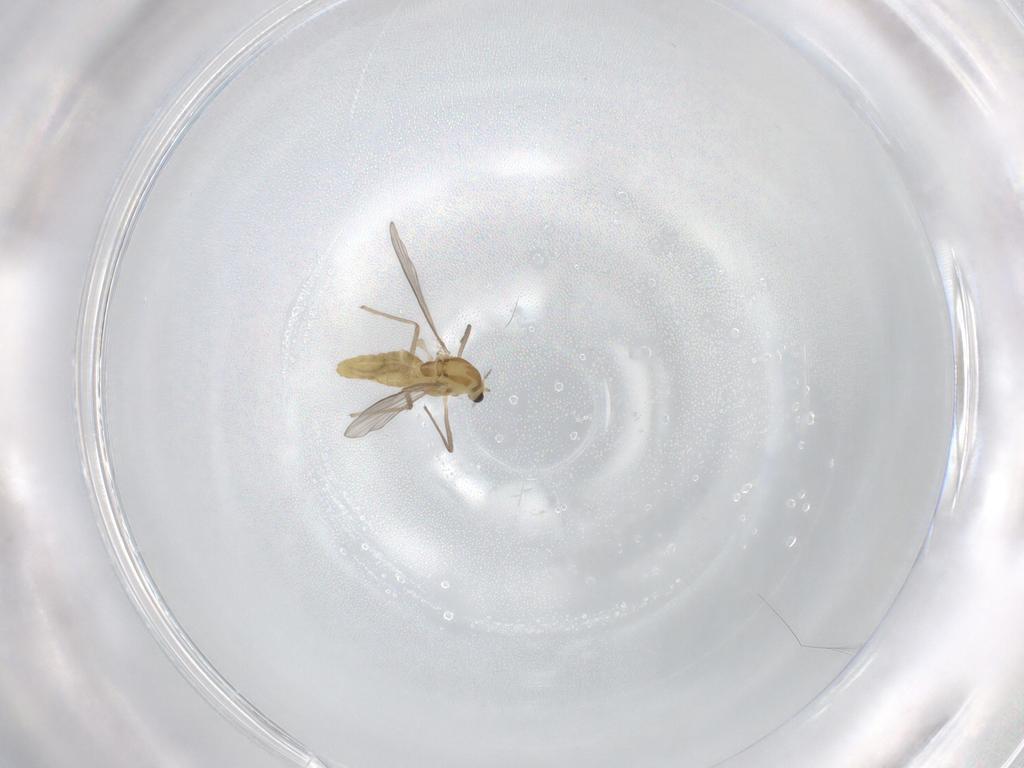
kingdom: Animalia
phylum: Arthropoda
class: Insecta
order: Diptera
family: Chironomidae
